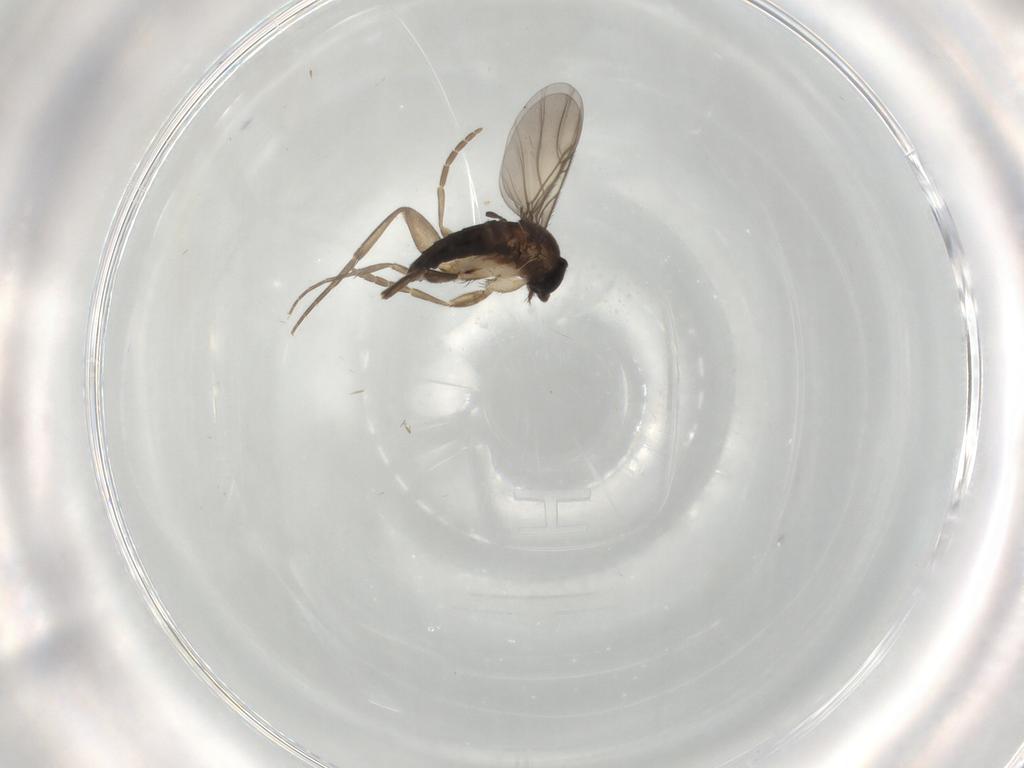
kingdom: Animalia
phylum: Arthropoda
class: Insecta
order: Diptera
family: Phoridae
